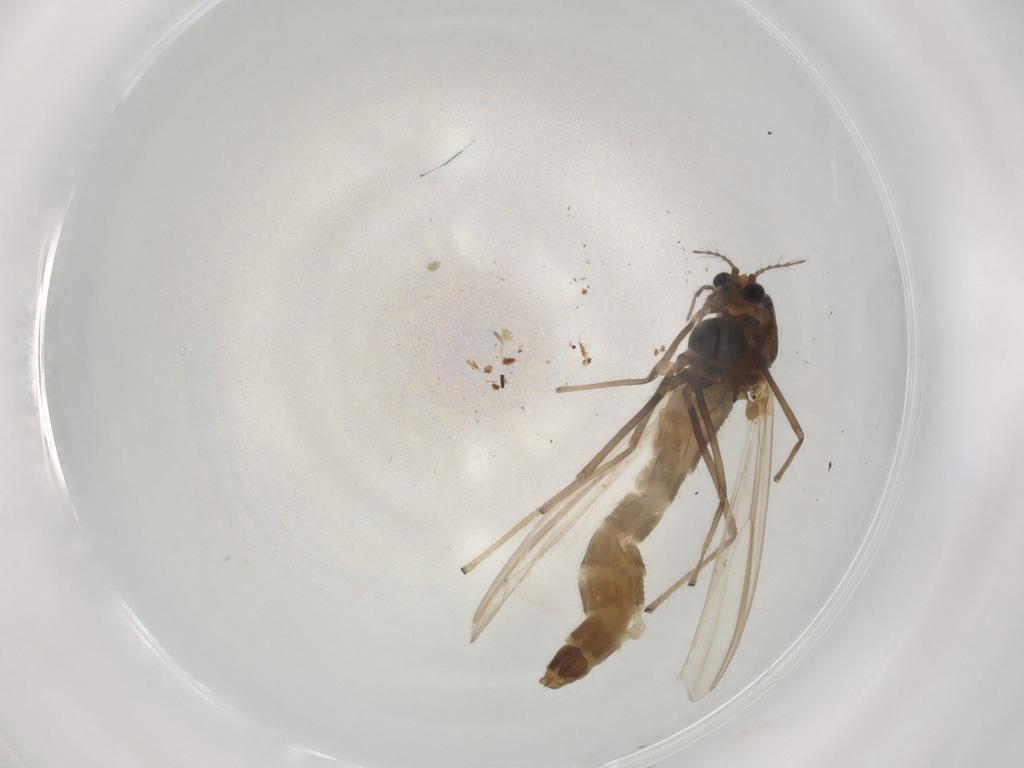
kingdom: Animalia
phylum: Arthropoda
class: Insecta
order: Diptera
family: Chironomidae
